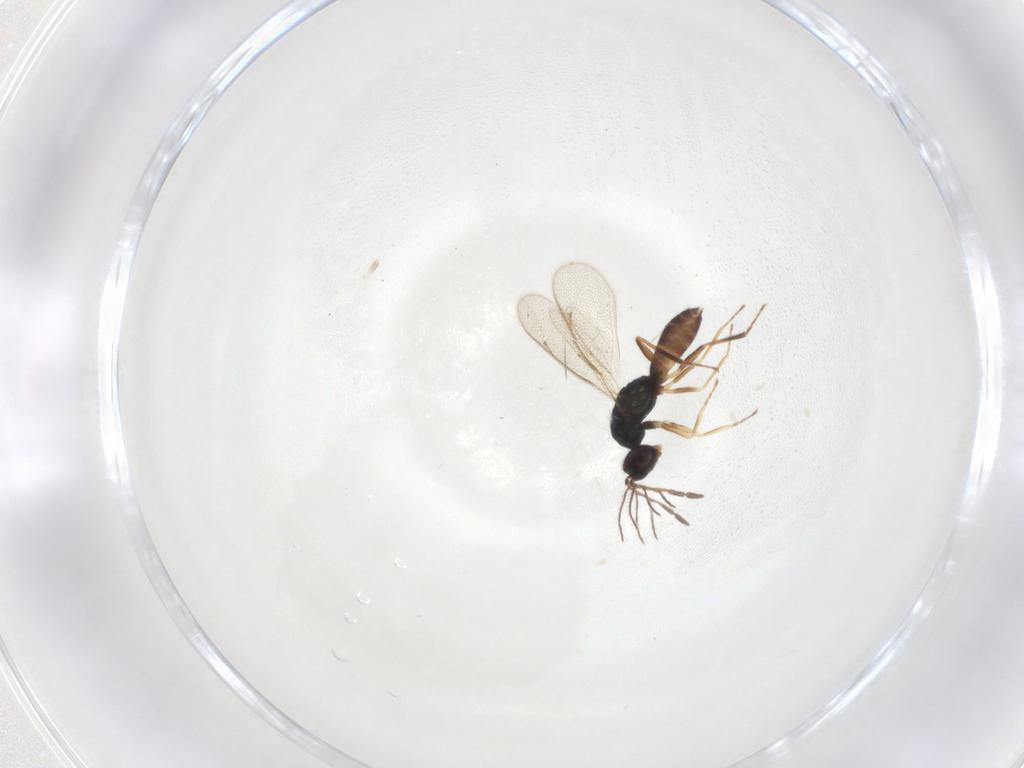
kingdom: Animalia
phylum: Arthropoda
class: Insecta
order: Hymenoptera
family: Eulophidae
